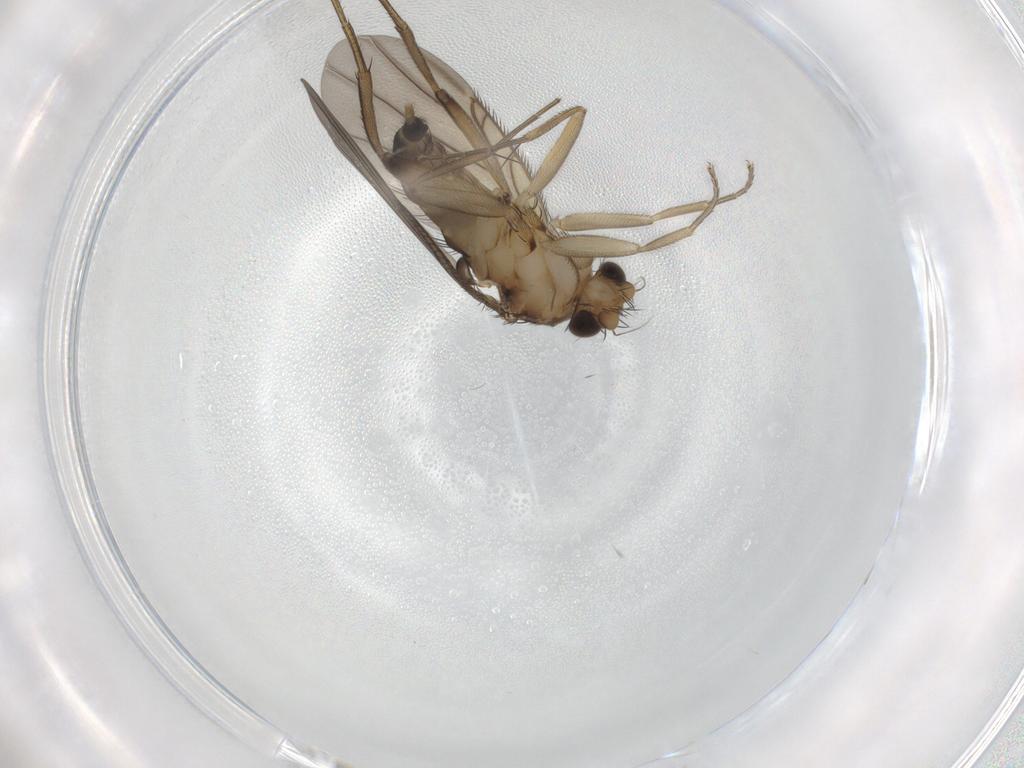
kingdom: Animalia
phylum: Arthropoda
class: Insecta
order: Diptera
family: Phoridae
